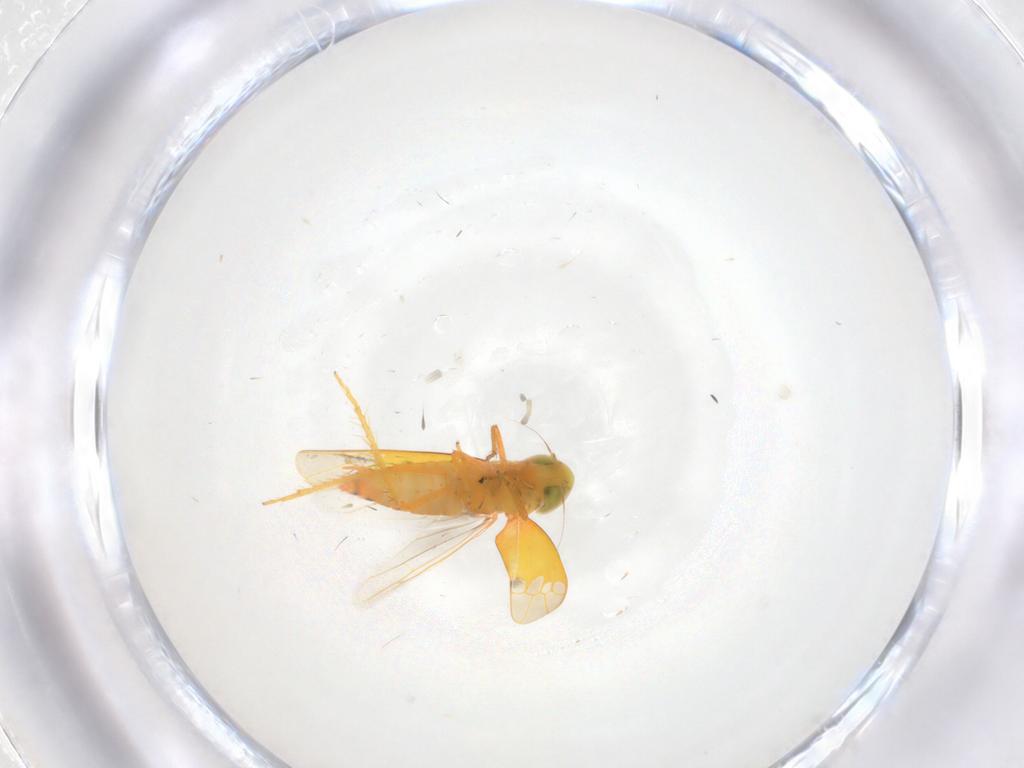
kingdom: Animalia
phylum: Arthropoda
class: Insecta
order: Hemiptera
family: Cicadellidae
